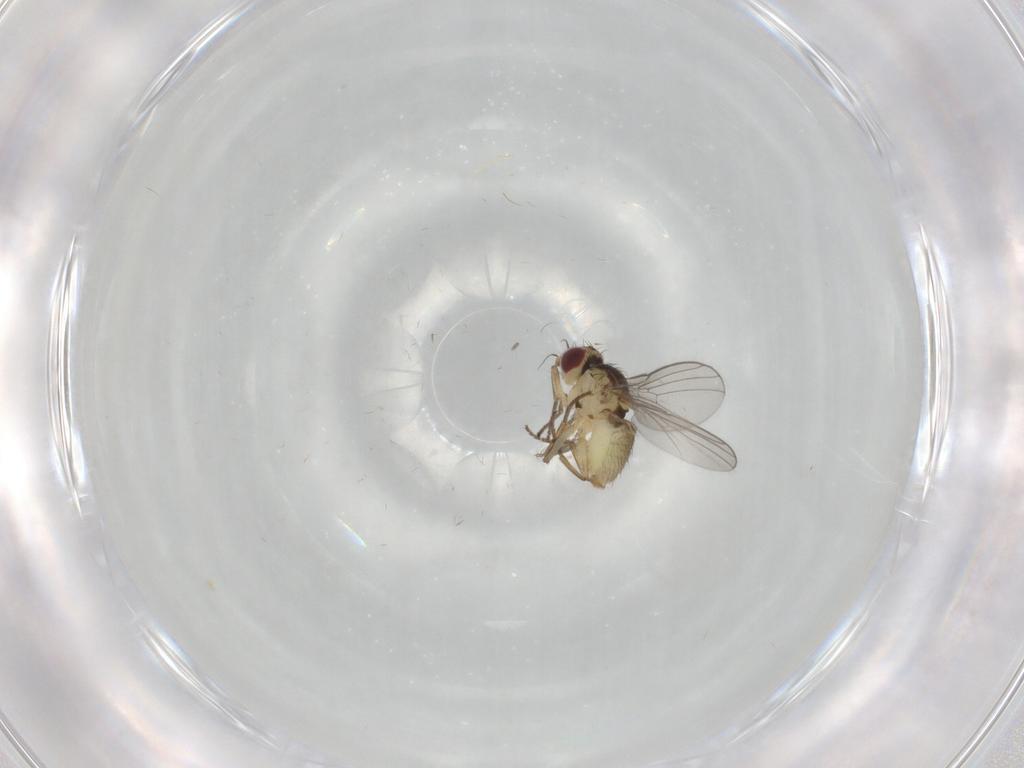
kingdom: Animalia
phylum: Arthropoda
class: Insecta
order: Diptera
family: Agromyzidae
